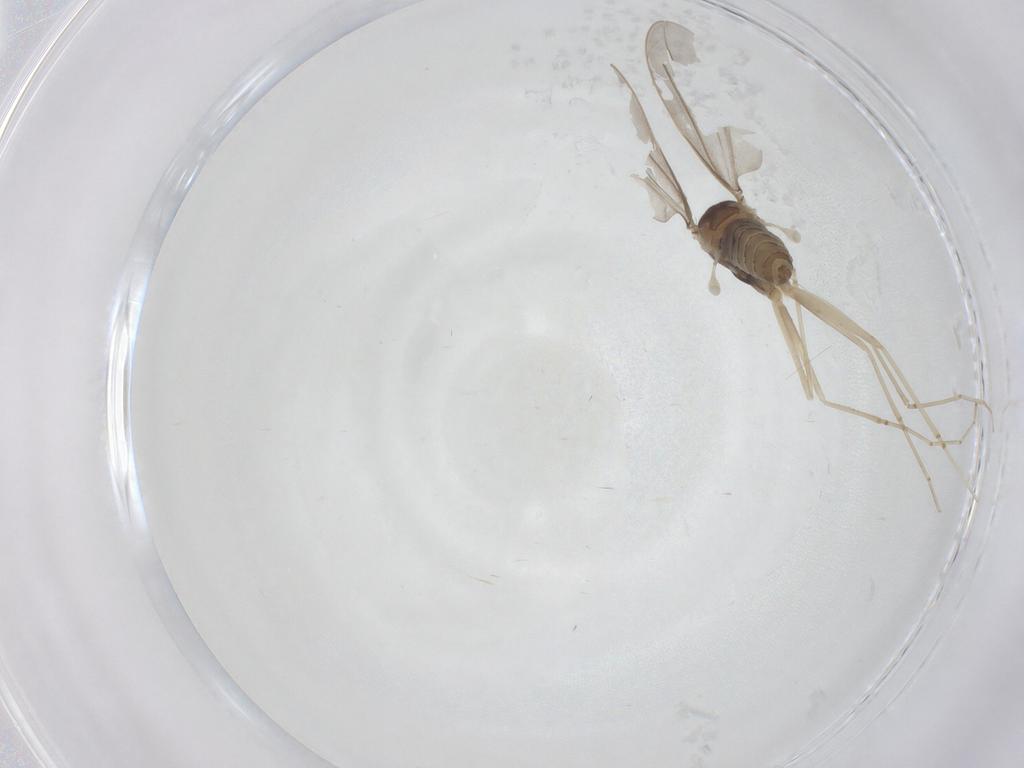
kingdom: Animalia
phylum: Arthropoda
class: Insecta
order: Diptera
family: Cecidomyiidae
